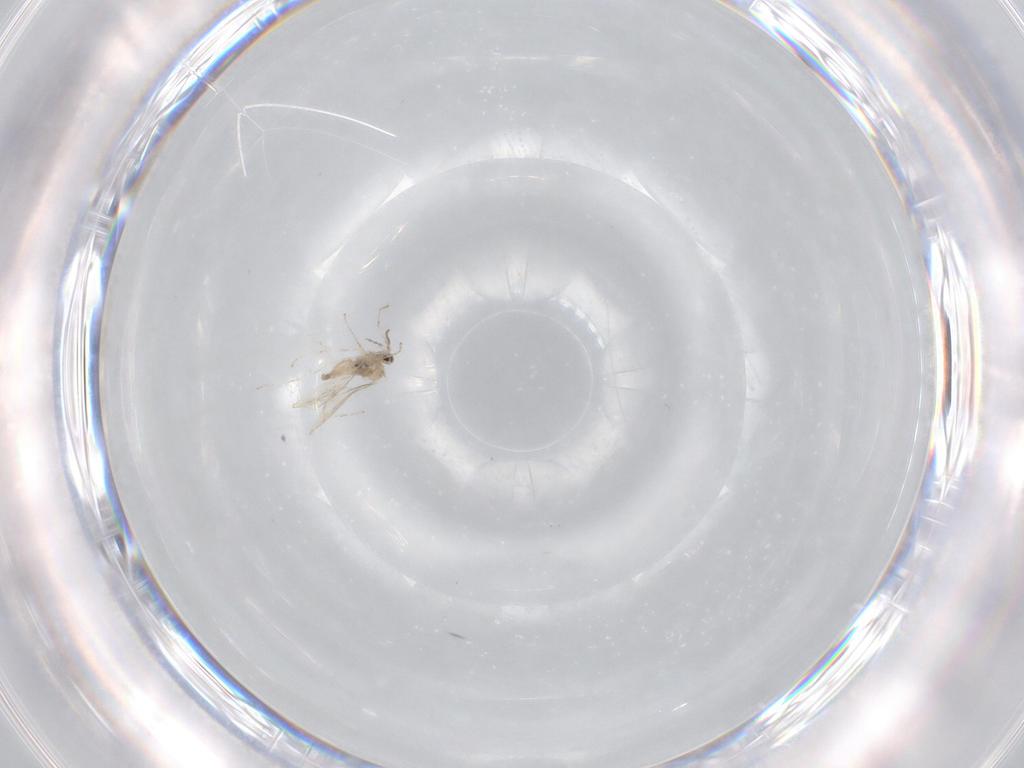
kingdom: Animalia
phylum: Arthropoda
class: Insecta
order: Diptera
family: Cecidomyiidae
